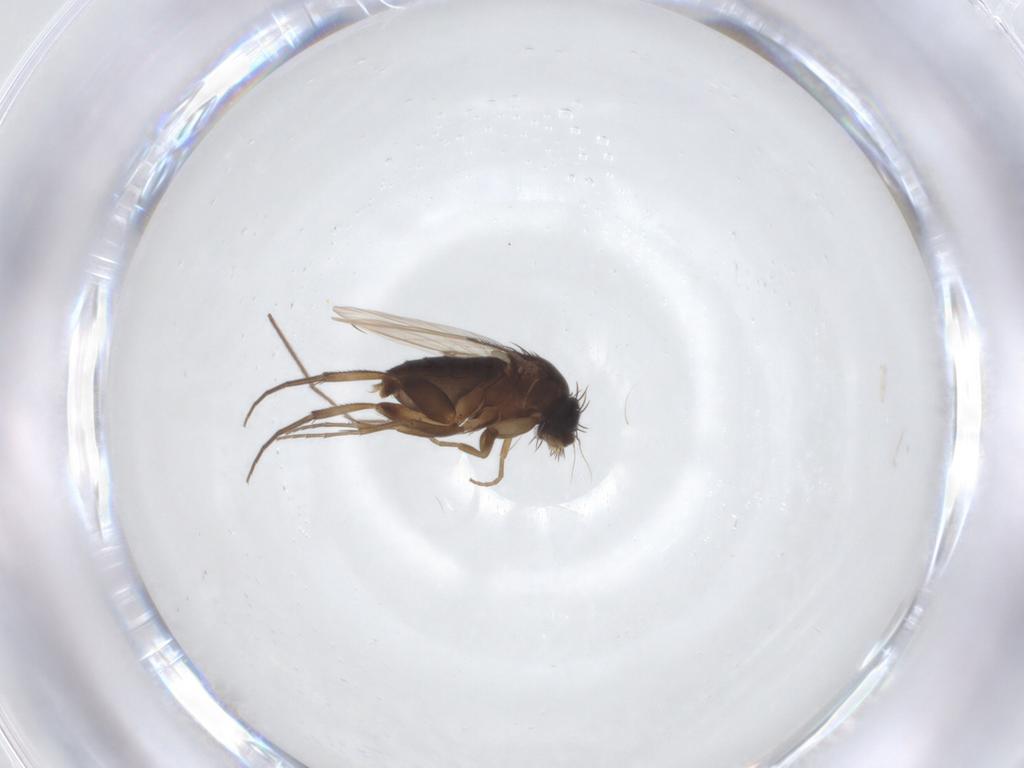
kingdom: Animalia
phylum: Arthropoda
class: Insecta
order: Diptera
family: Phoridae
